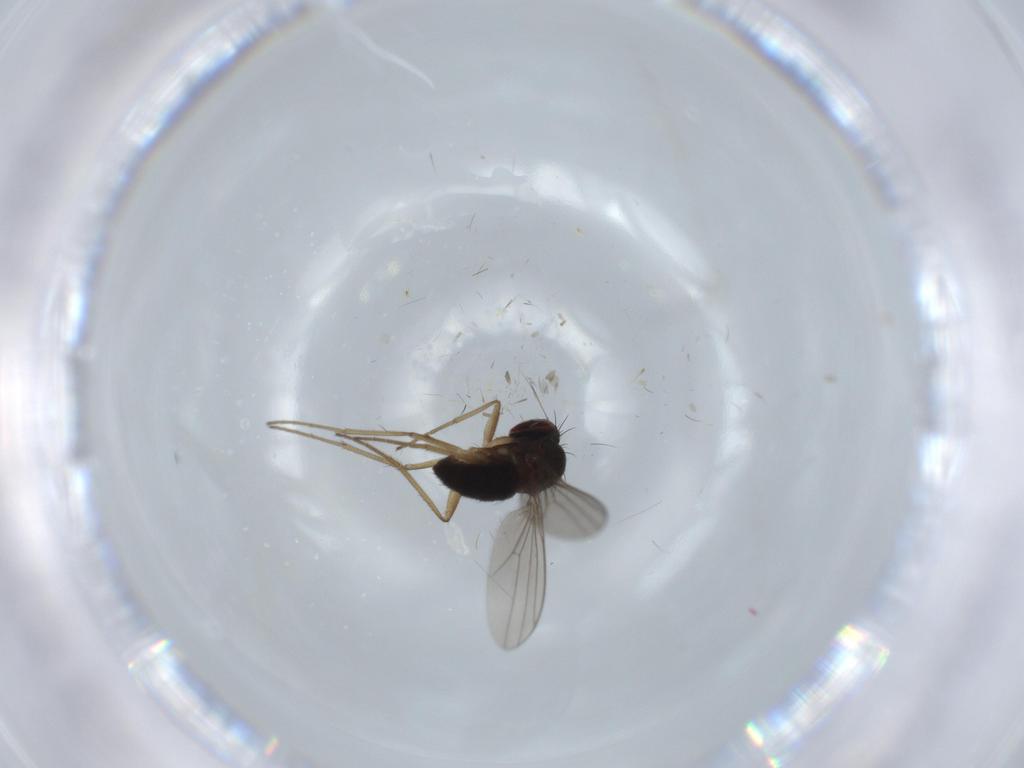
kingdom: Animalia
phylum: Arthropoda
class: Insecta
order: Diptera
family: Dolichopodidae
